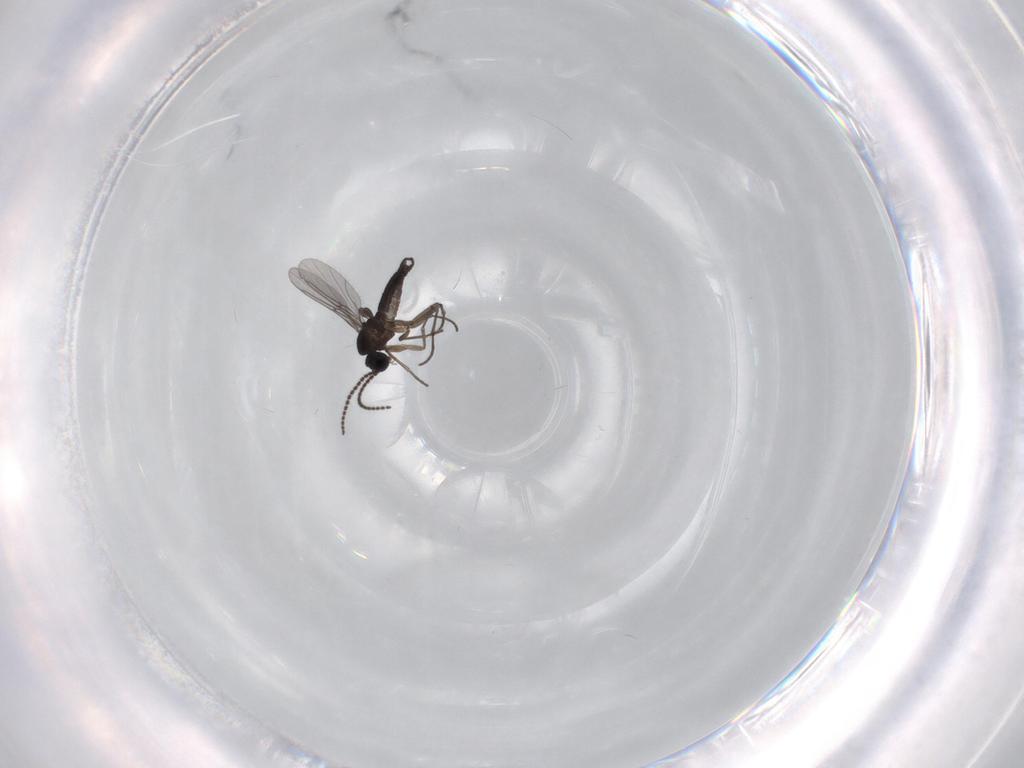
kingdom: Animalia
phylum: Arthropoda
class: Insecta
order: Diptera
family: Sciaridae
